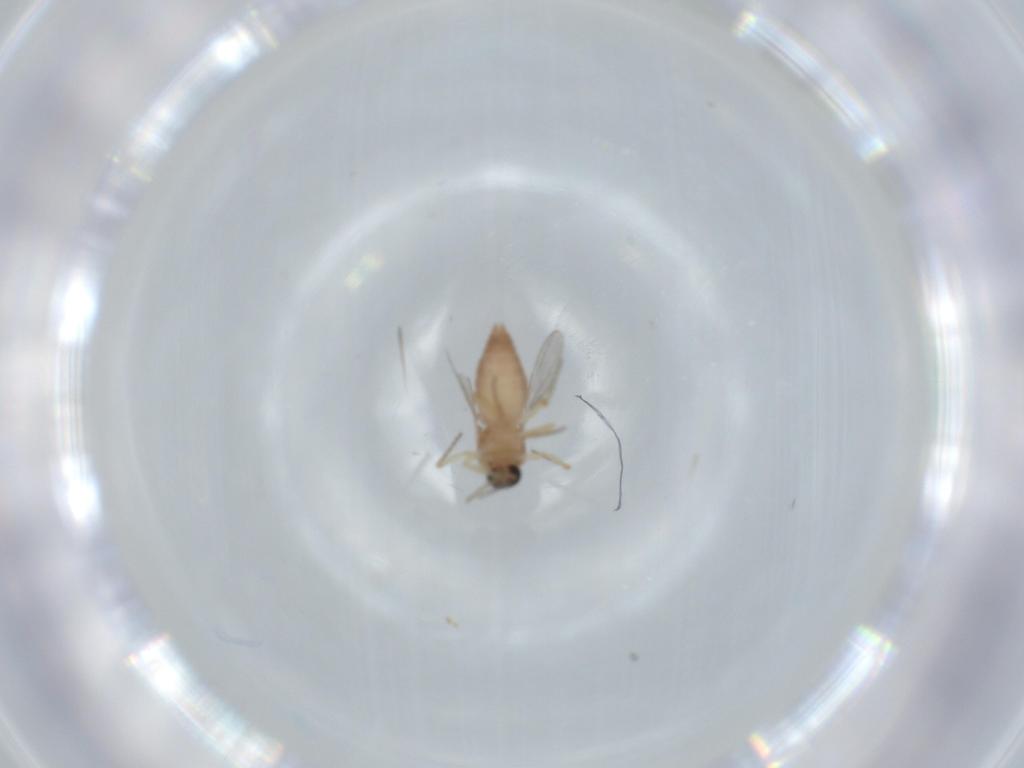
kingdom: Animalia
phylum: Arthropoda
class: Insecta
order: Diptera
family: Ceratopogonidae
